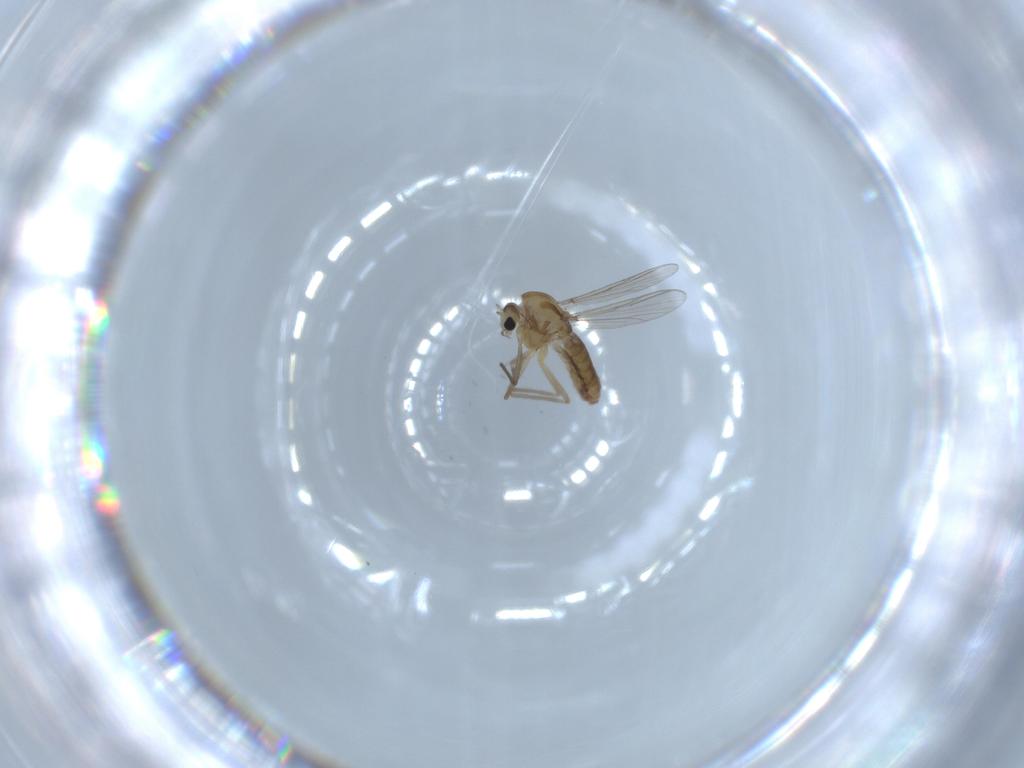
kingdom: Animalia
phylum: Arthropoda
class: Insecta
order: Diptera
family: Chironomidae
